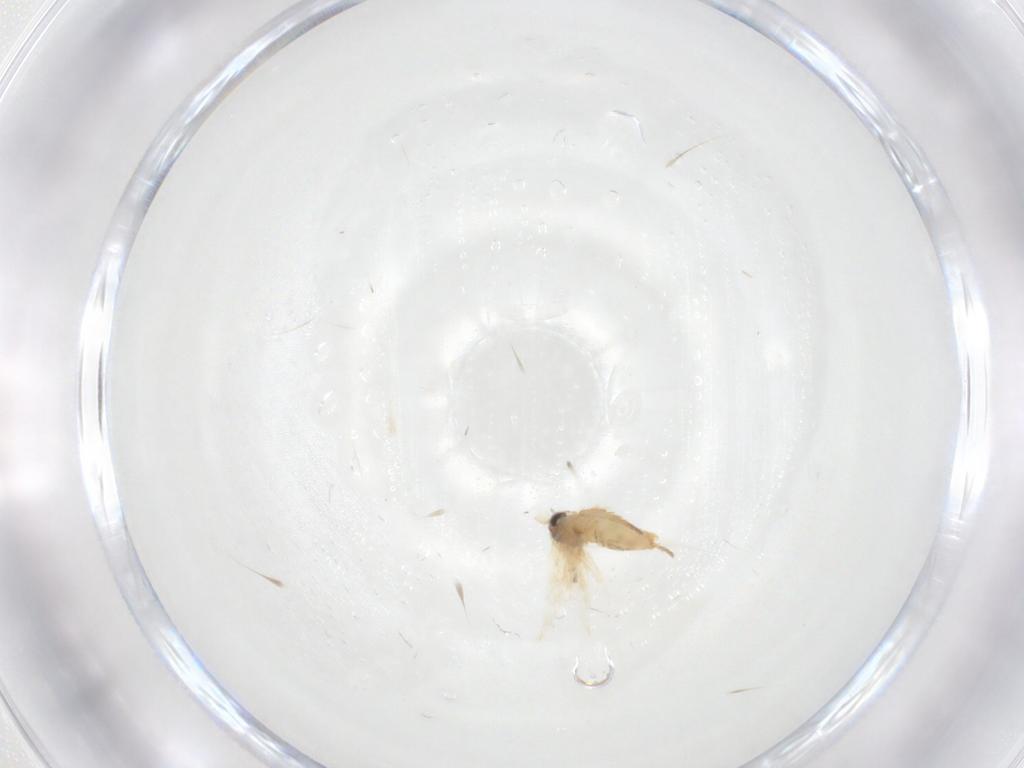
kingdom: Animalia
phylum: Arthropoda
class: Insecta
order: Lepidoptera
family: Crambidae
